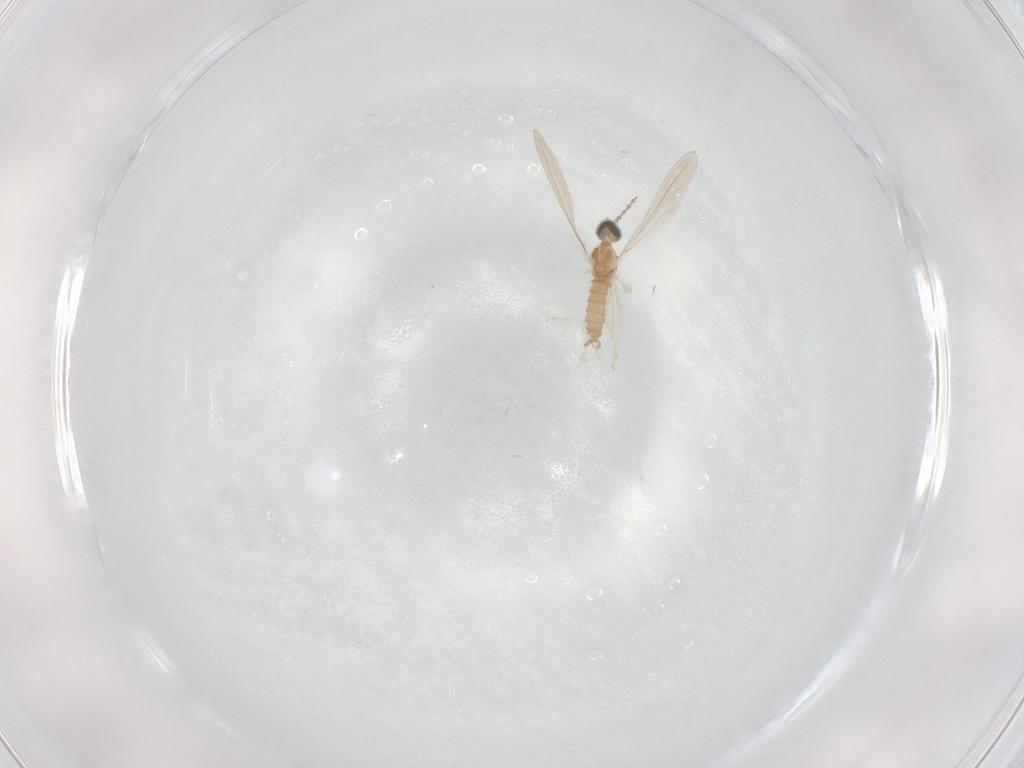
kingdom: Animalia
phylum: Arthropoda
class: Insecta
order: Diptera
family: Cecidomyiidae
